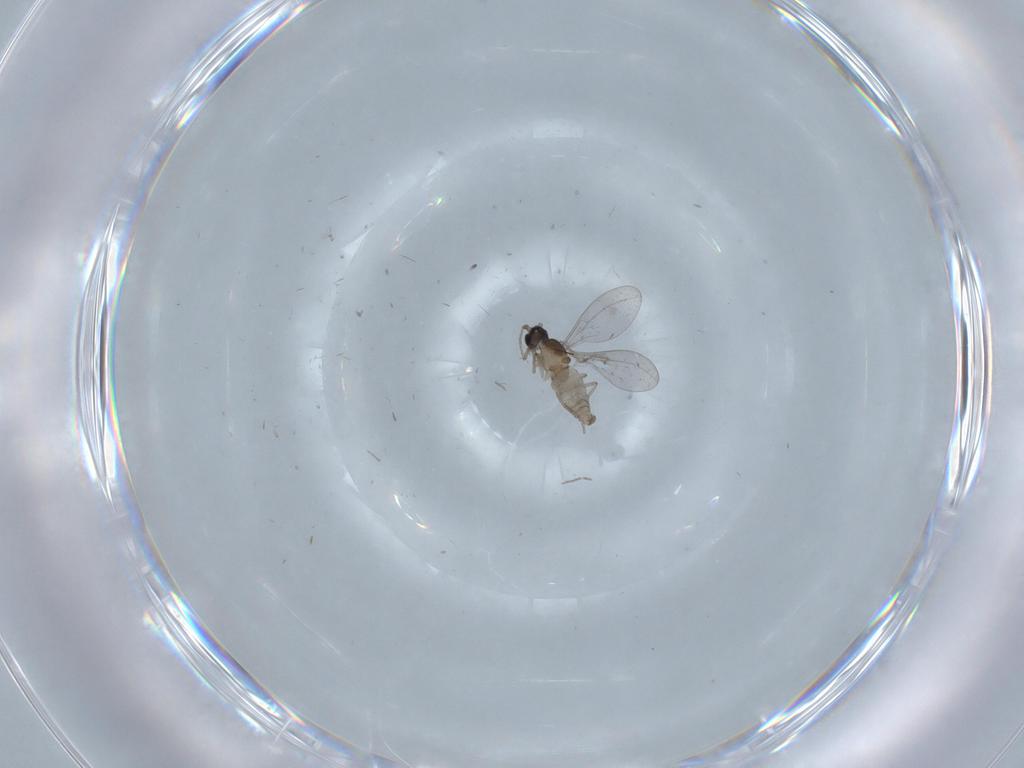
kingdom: Animalia
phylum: Arthropoda
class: Insecta
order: Diptera
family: Cecidomyiidae
